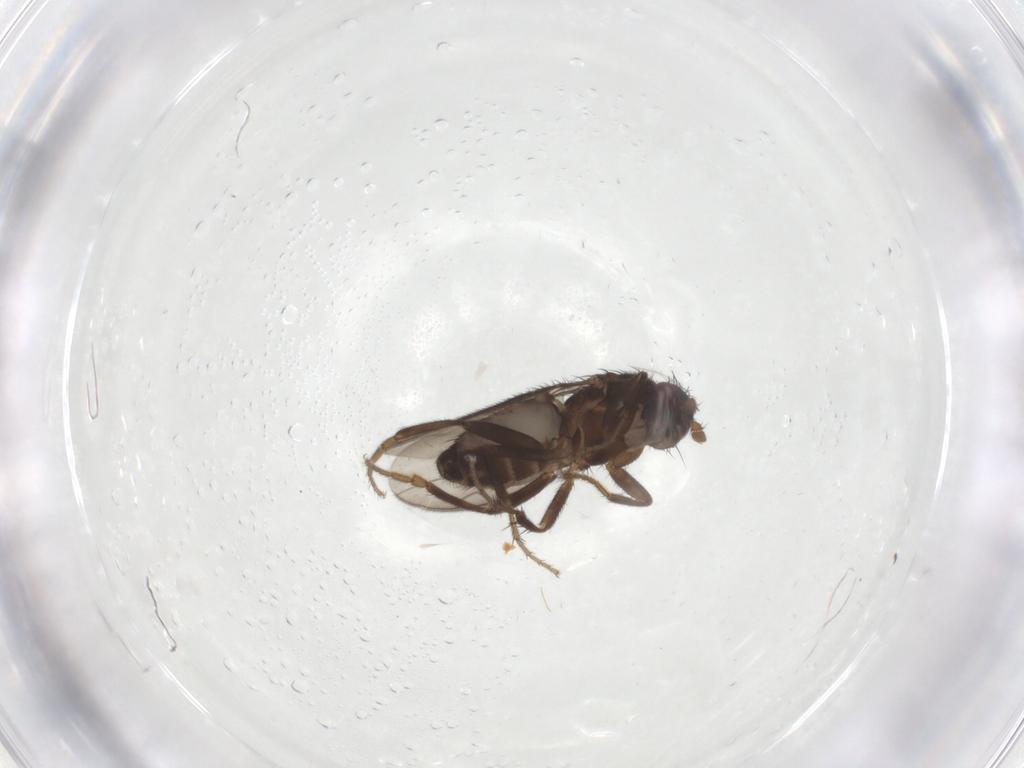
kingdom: Animalia
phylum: Arthropoda
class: Insecta
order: Diptera
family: Sphaeroceridae
